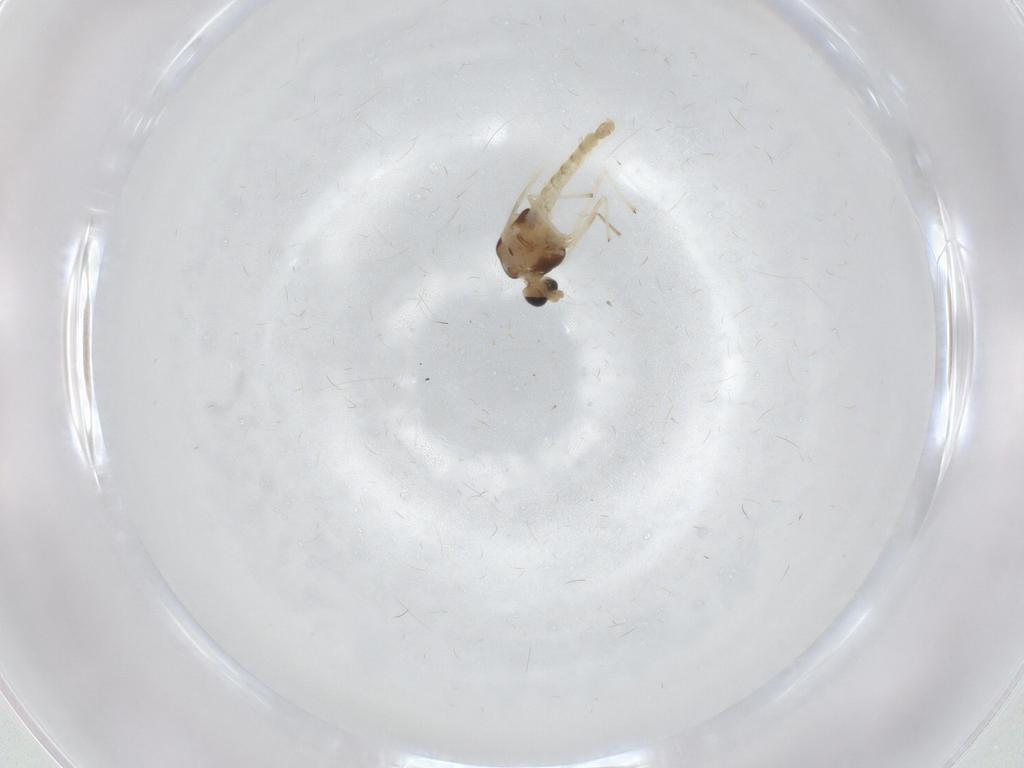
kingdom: Animalia
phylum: Arthropoda
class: Insecta
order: Diptera
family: Chironomidae
